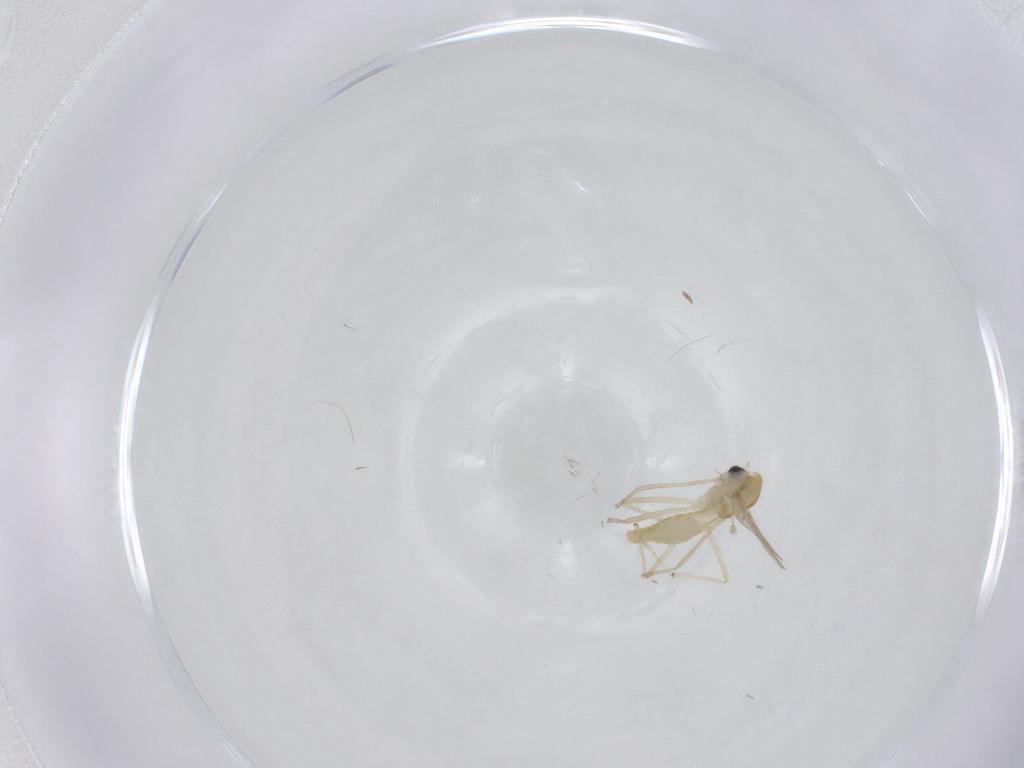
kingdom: Animalia
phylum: Arthropoda
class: Insecta
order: Diptera
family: Chironomidae
